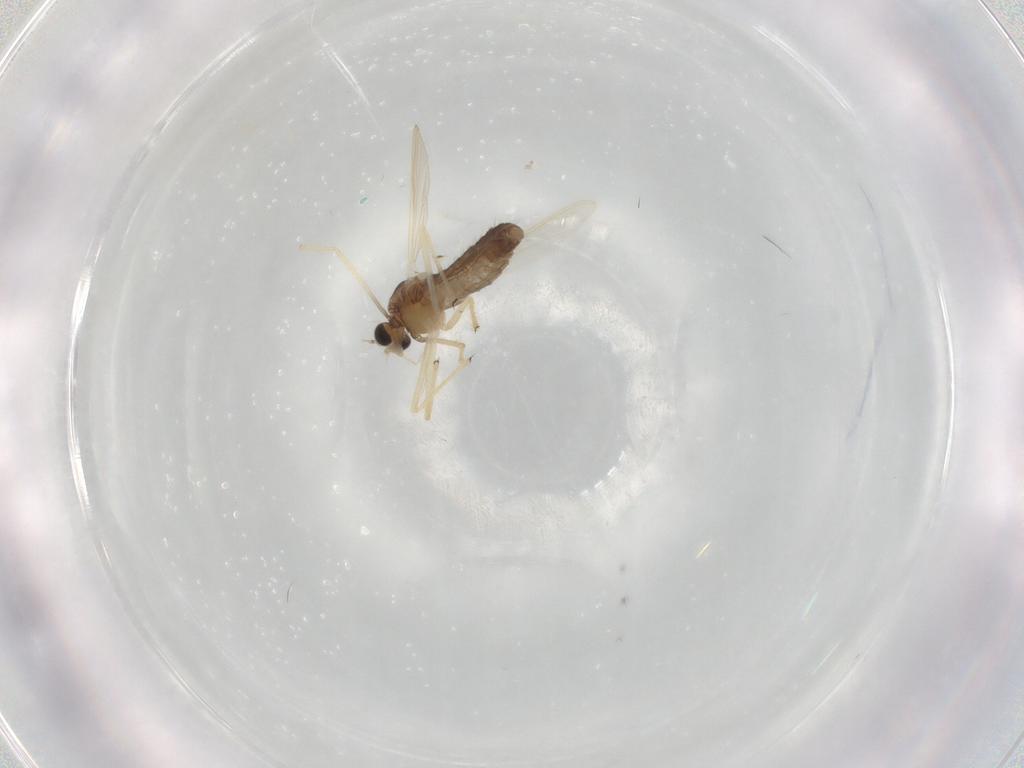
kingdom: Animalia
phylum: Arthropoda
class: Insecta
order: Diptera
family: Chironomidae
